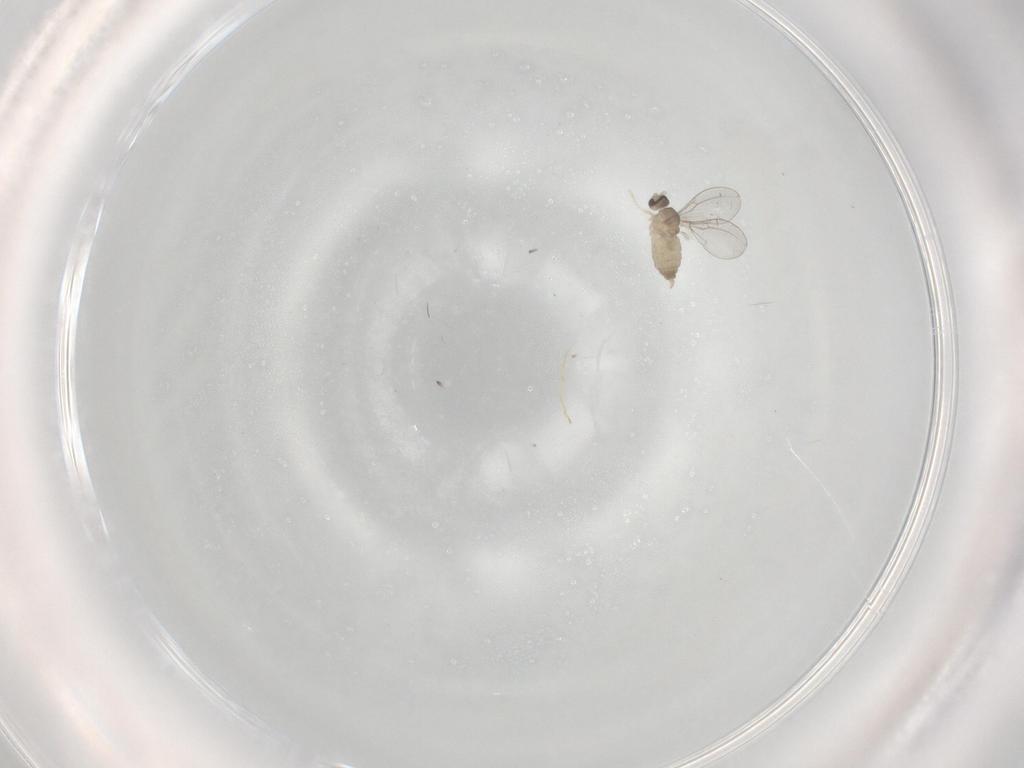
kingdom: Animalia
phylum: Arthropoda
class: Insecta
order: Diptera
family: Cecidomyiidae
